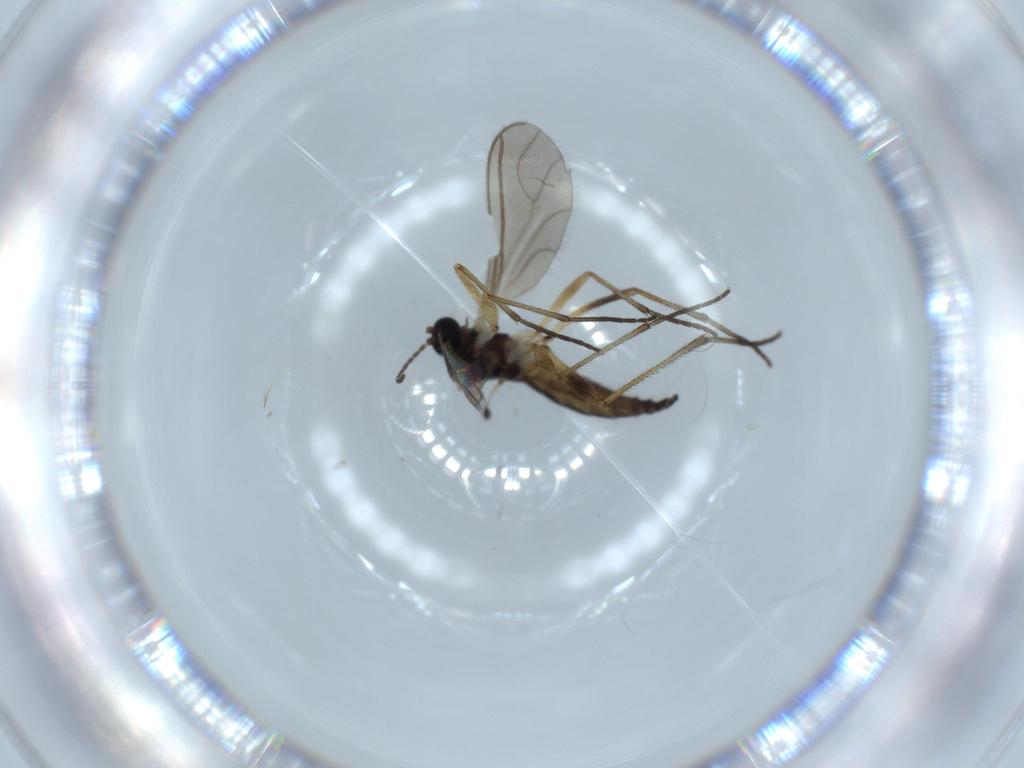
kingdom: Animalia
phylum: Arthropoda
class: Insecta
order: Diptera
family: Sciaridae
